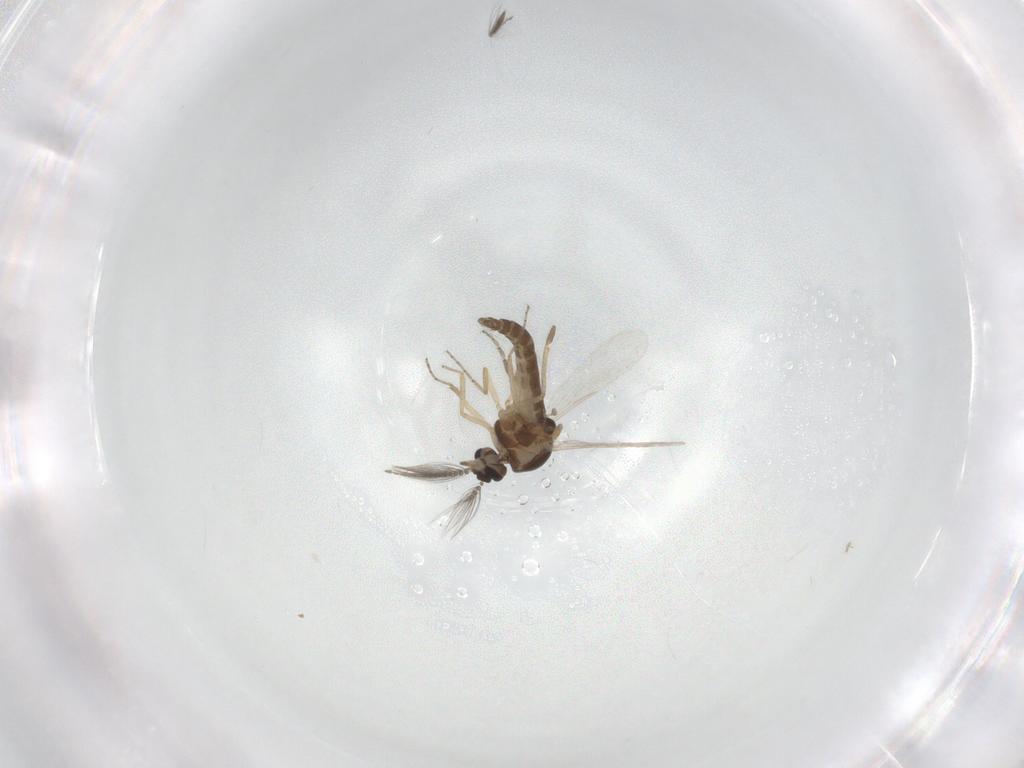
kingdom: Animalia
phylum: Arthropoda
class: Insecta
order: Diptera
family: Ceratopogonidae
